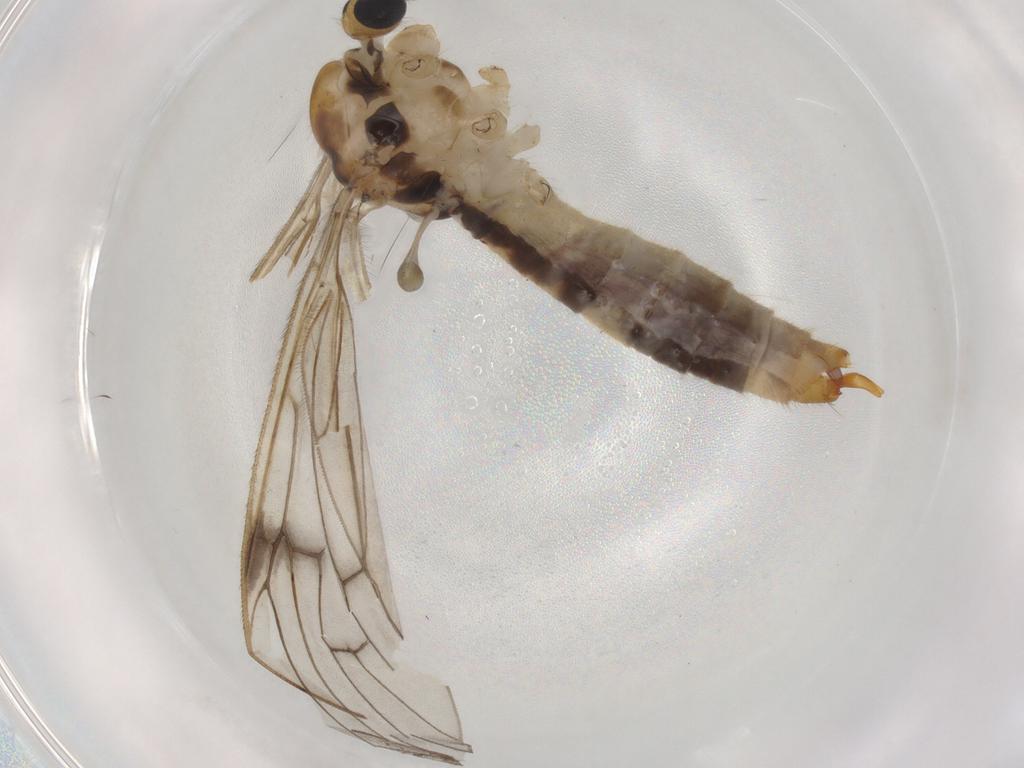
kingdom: Animalia
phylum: Arthropoda
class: Insecta
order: Diptera
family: Limoniidae
